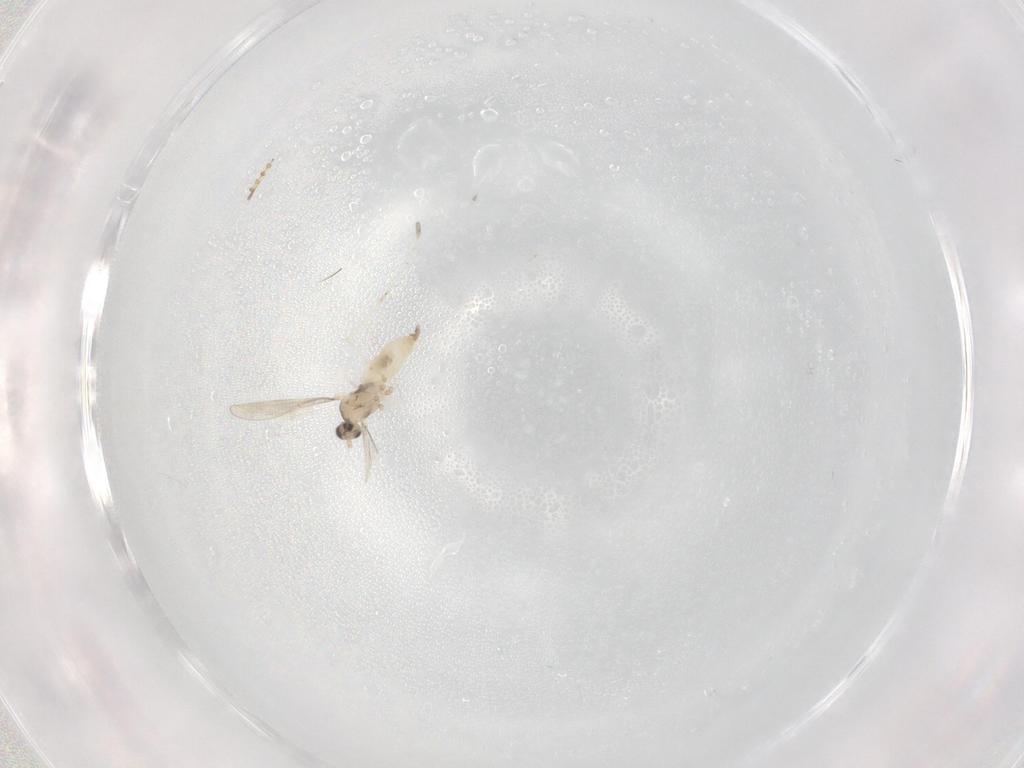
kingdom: Animalia
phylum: Arthropoda
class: Insecta
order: Diptera
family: Cecidomyiidae
